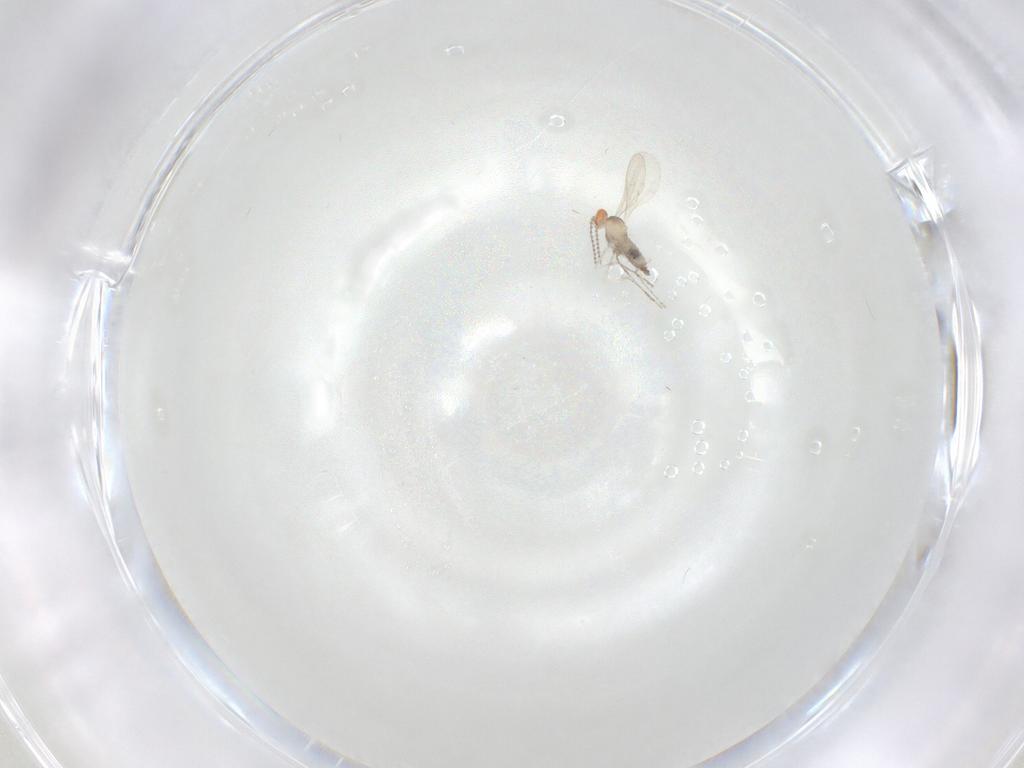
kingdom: Animalia
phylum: Arthropoda
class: Insecta
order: Diptera
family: Cecidomyiidae
